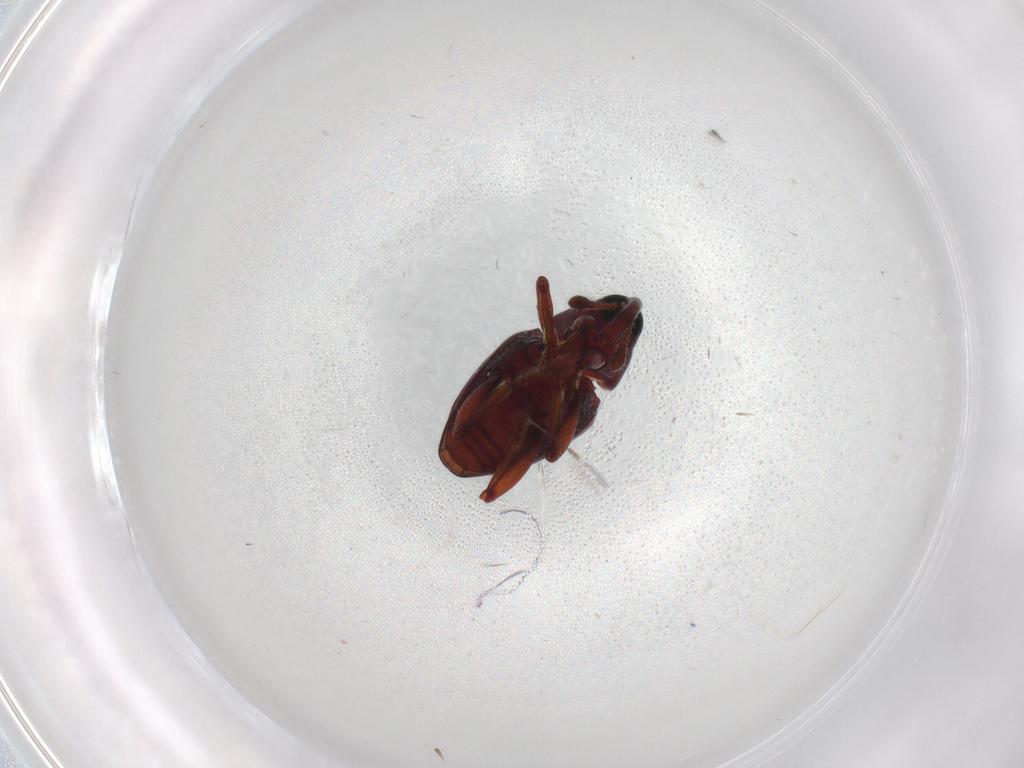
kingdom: Animalia
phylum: Arthropoda
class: Insecta
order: Coleoptera
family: Curculionidae
